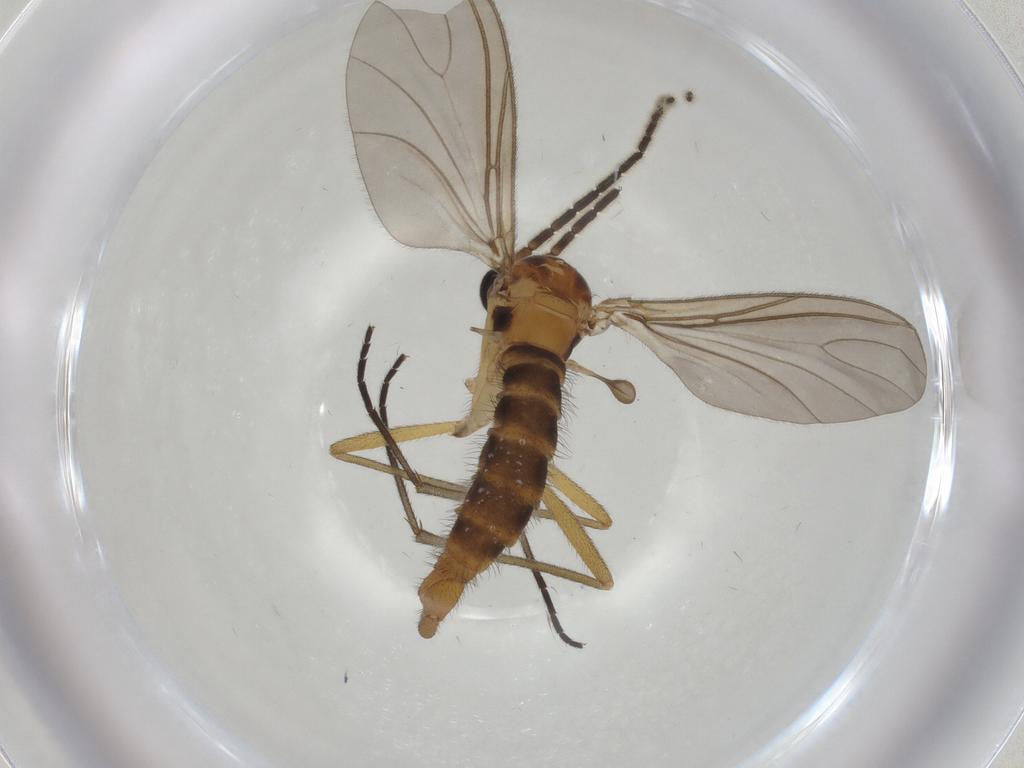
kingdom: Animalia
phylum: Arthropoda
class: Insecta
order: Diptera
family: Sciaridae
